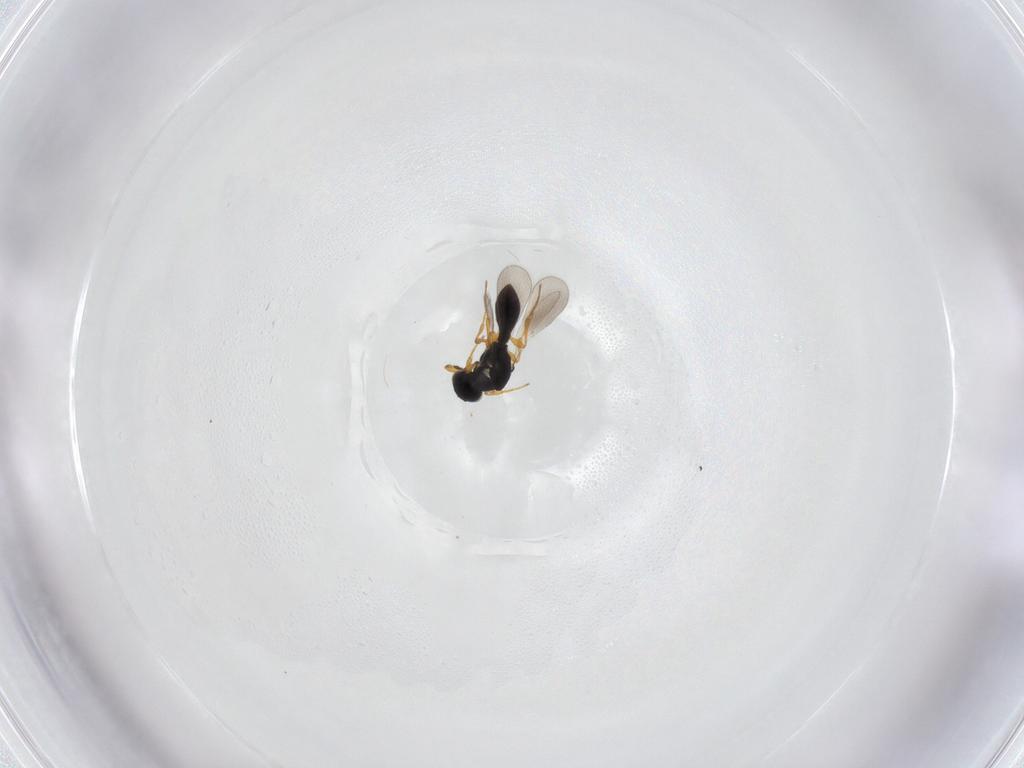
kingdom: Animalia
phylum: Arthropoda
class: Insecta
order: Hymenoptera
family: Platygastridae
